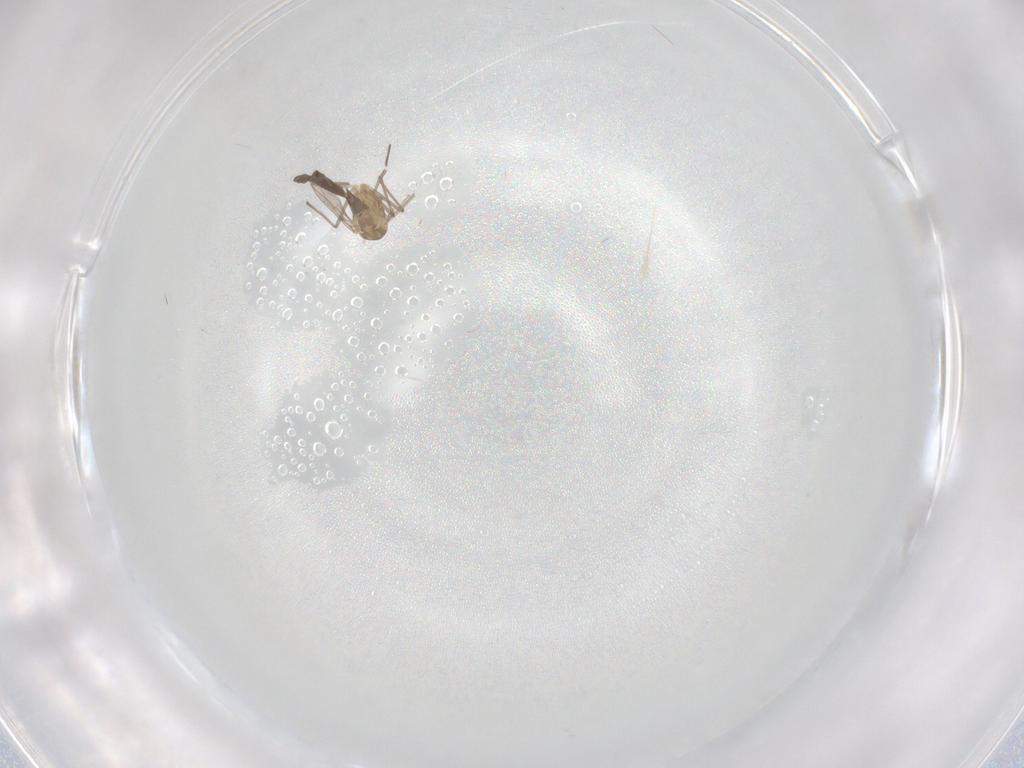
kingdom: Animalia
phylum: Arthropoda
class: Insecta
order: Diptera
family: Chironomidae
